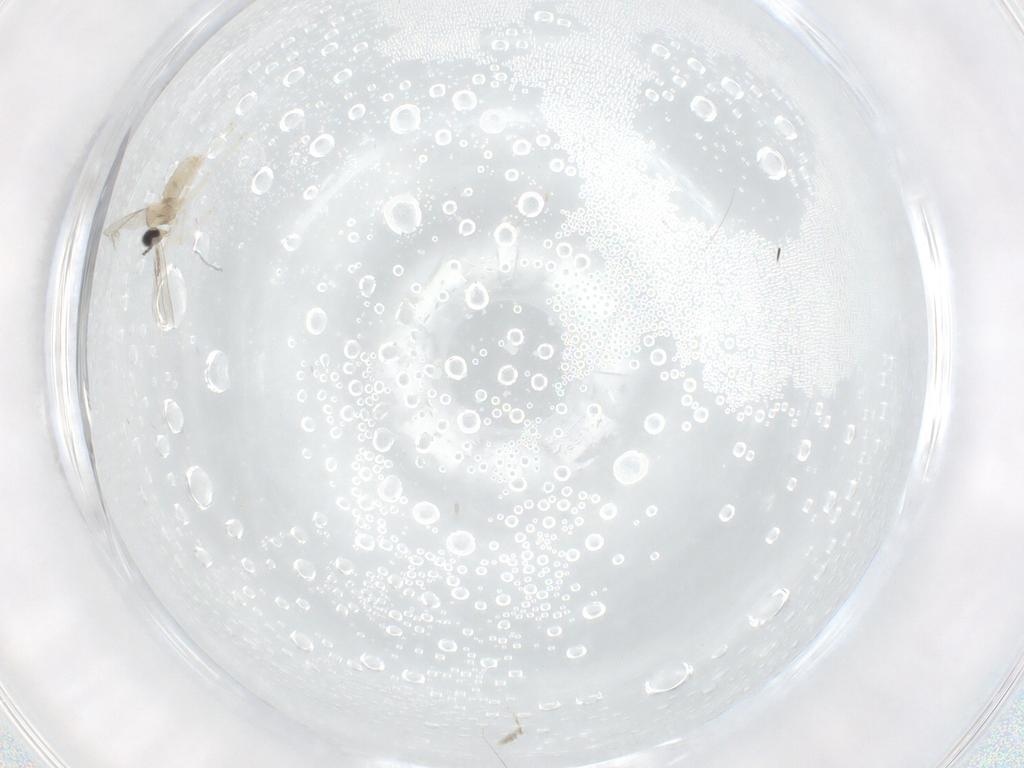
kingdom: Animalia
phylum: Arthropoda
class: Insecta
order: Diptera
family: Cecidomyiidae
